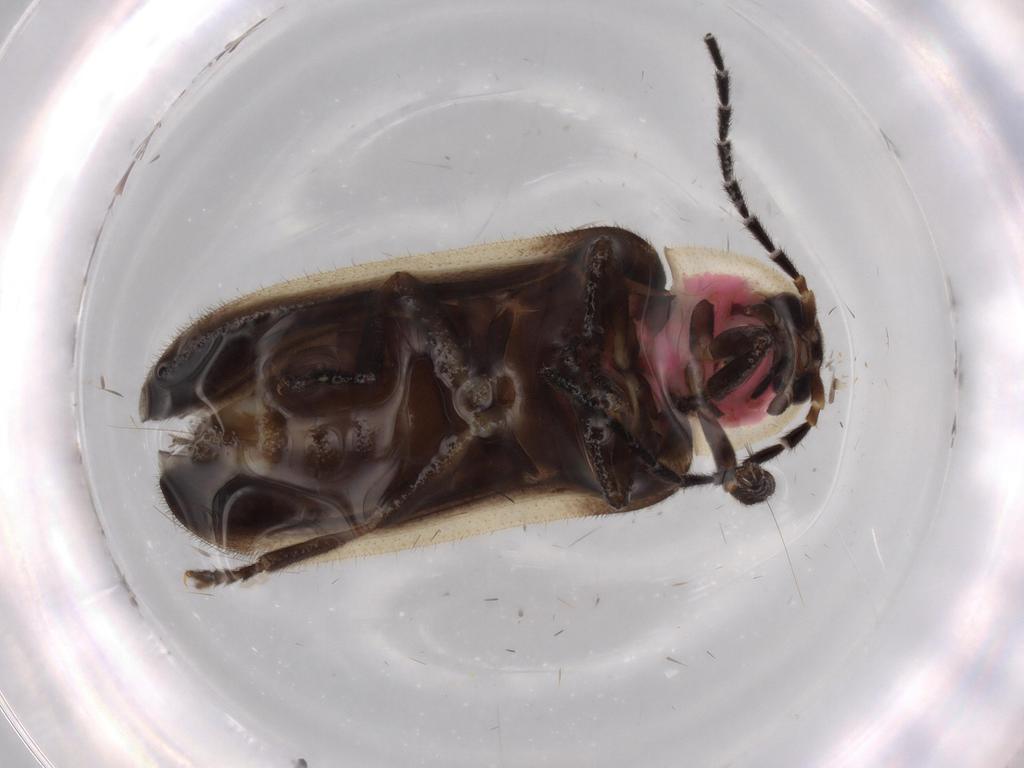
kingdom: Animalia
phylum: Arthropoda
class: Insecta
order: Coleoptera
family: Lampyridae
